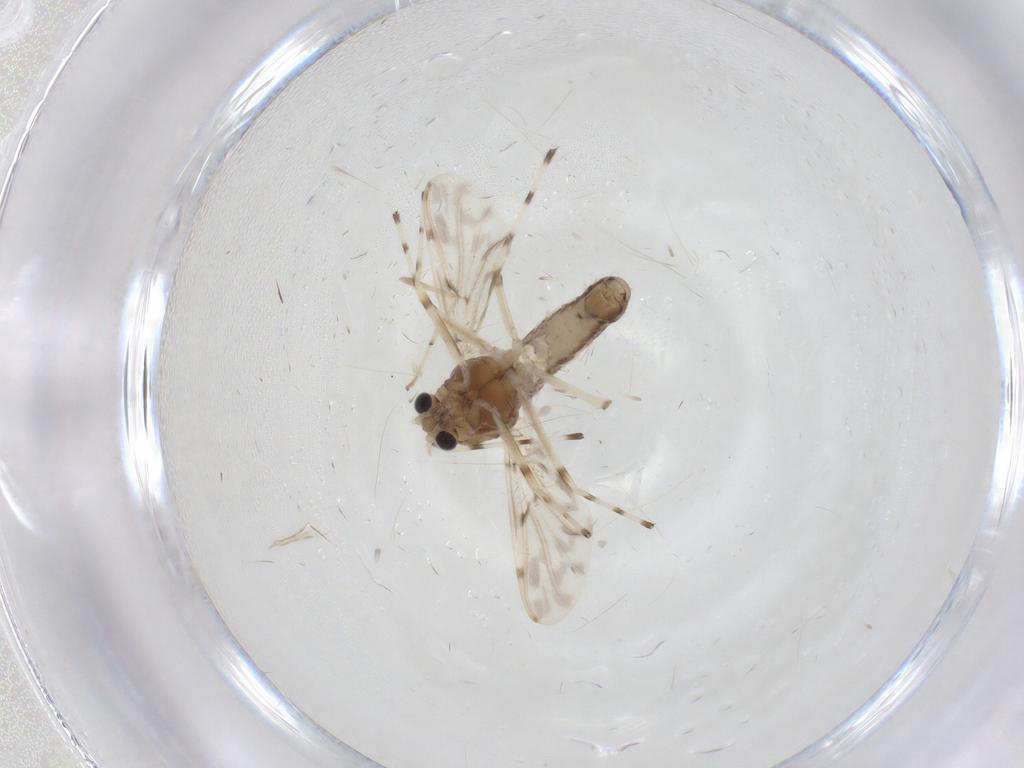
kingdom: Animalia
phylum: Arthropoda
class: Insecta
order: Diptera
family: Chironomidae
